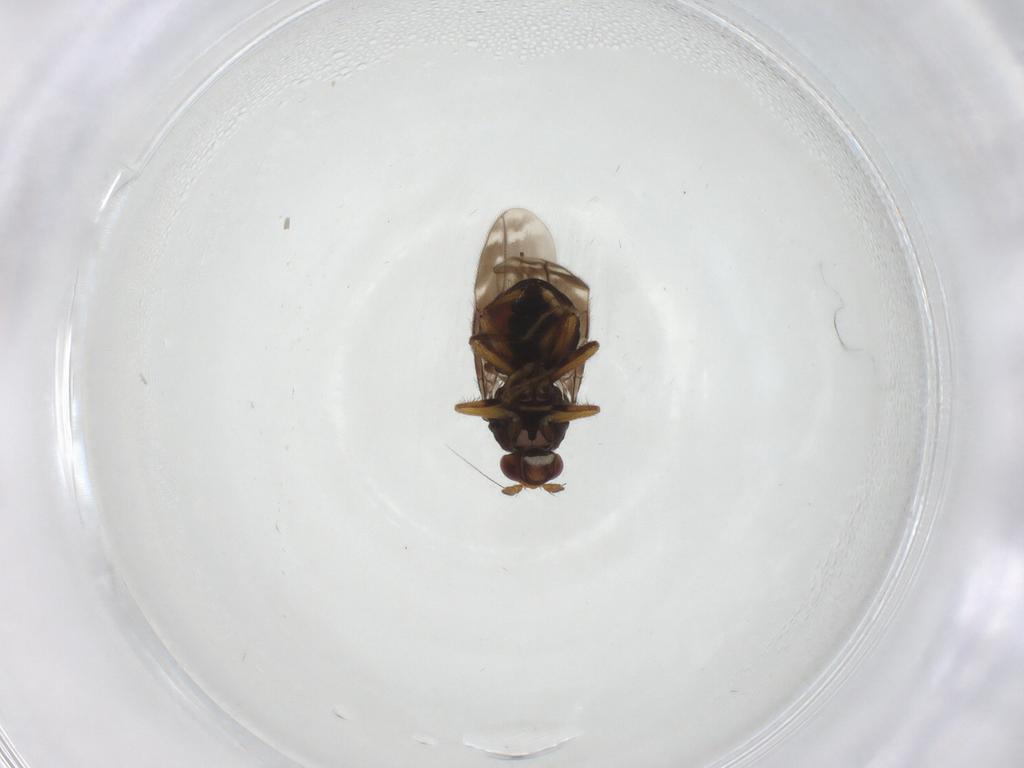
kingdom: Animalia
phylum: Arthropoda
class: Insecta
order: Diptera
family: Sphaeroceridae
